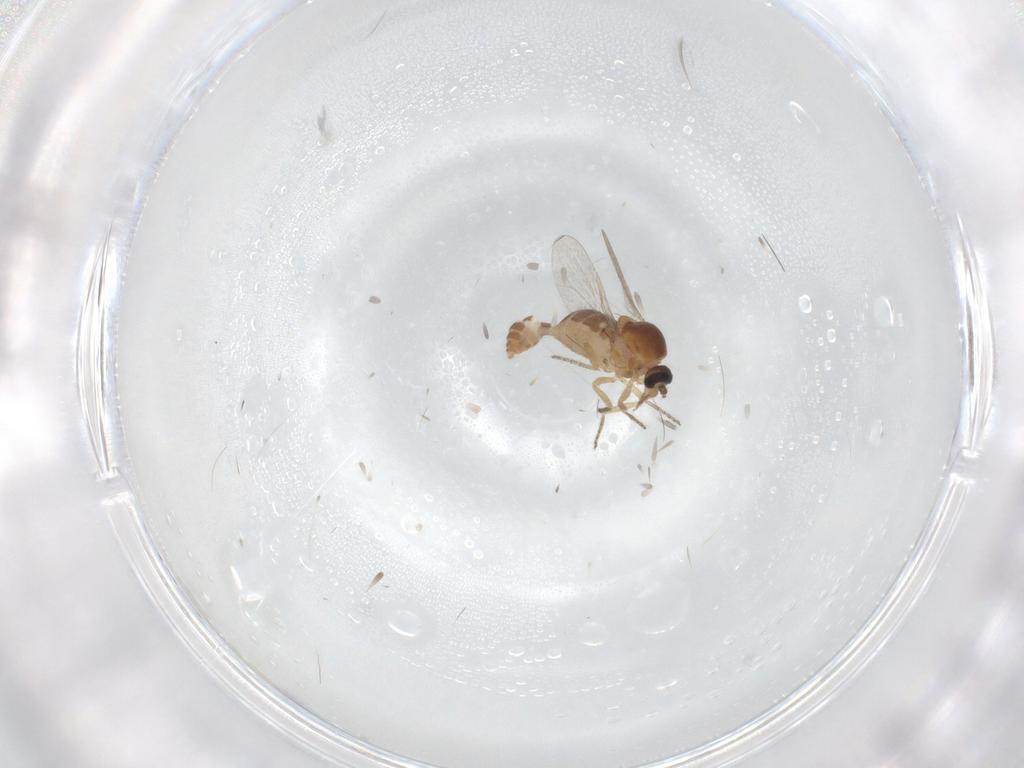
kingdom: Animalia
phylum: Arthropoda
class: Insecta
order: Diptera
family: Ceratopogonidae
